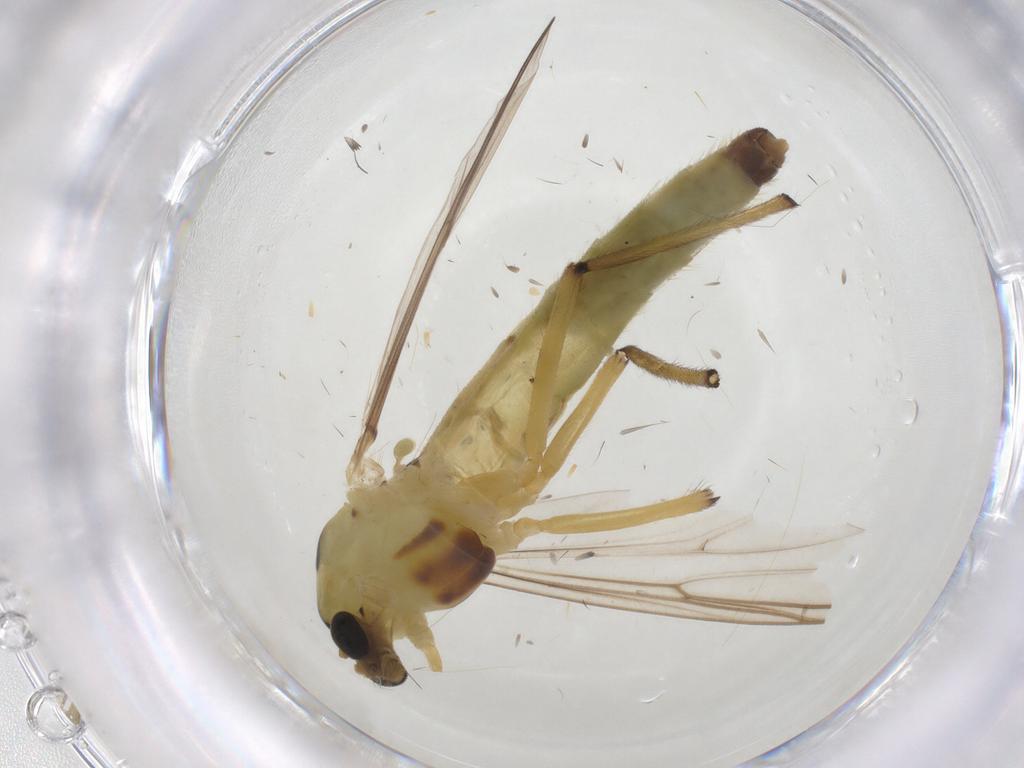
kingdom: Animalia
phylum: Arthropoda
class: Insecta
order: Diptera
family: Chironomidae
